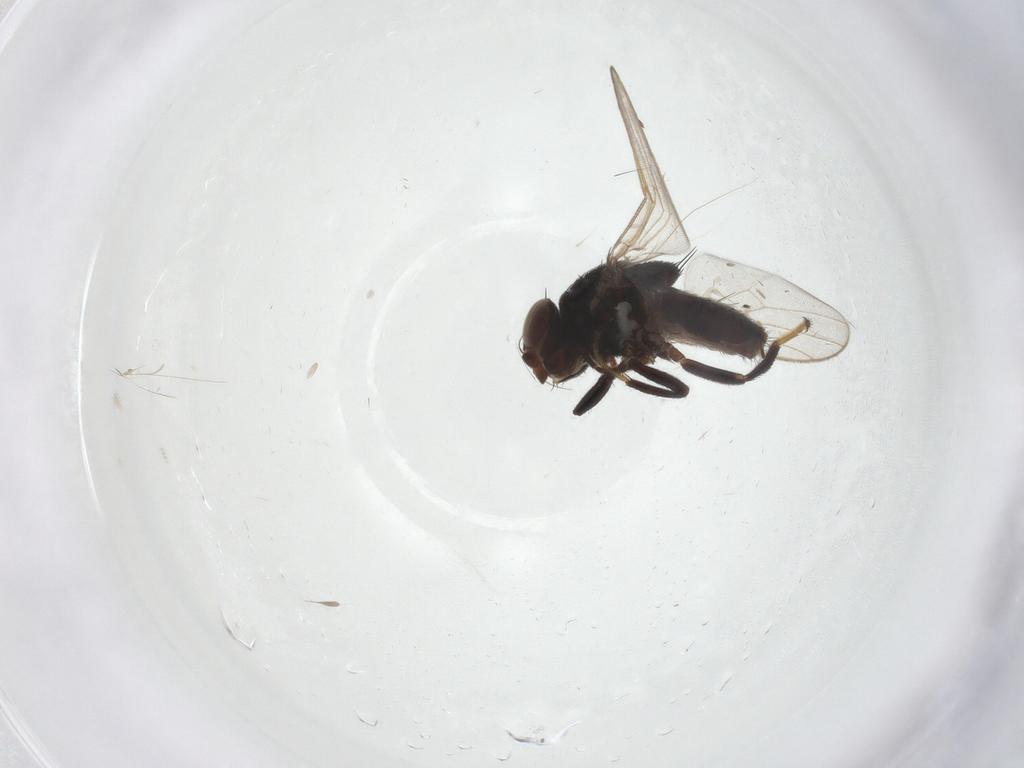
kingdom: Animalia
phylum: Arthropoda
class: Insecta
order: Diptera
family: Chloropidae
